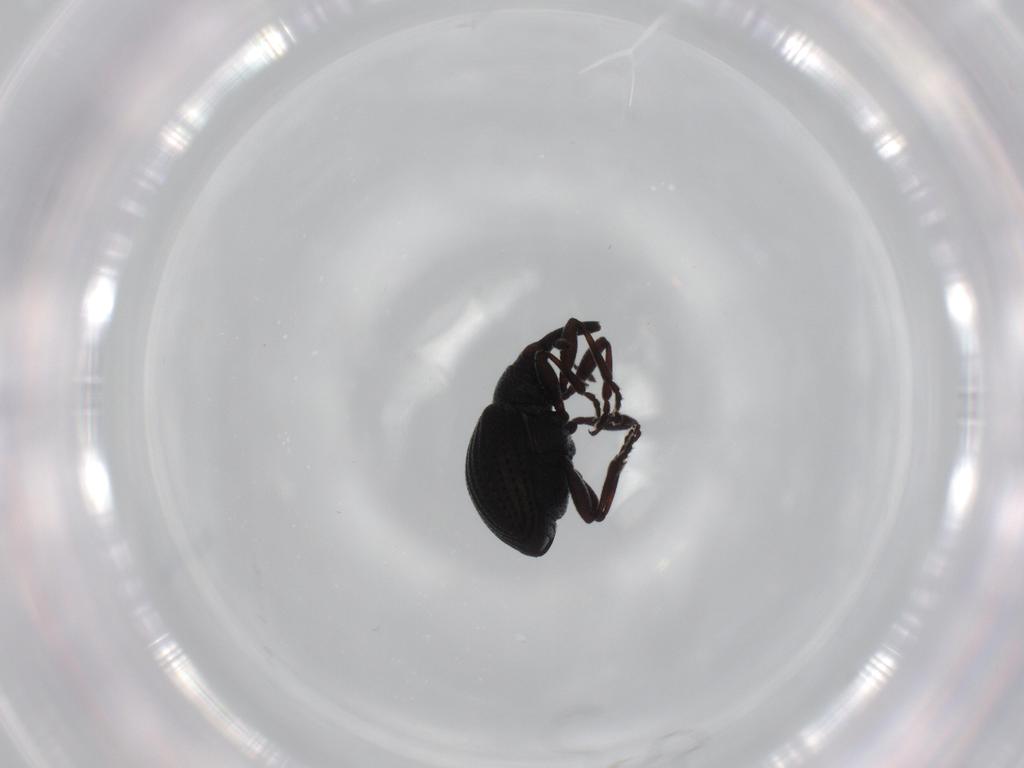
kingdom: Animalia
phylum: Arthropoda
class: Insecta
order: Coleoptera
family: Brentidae
